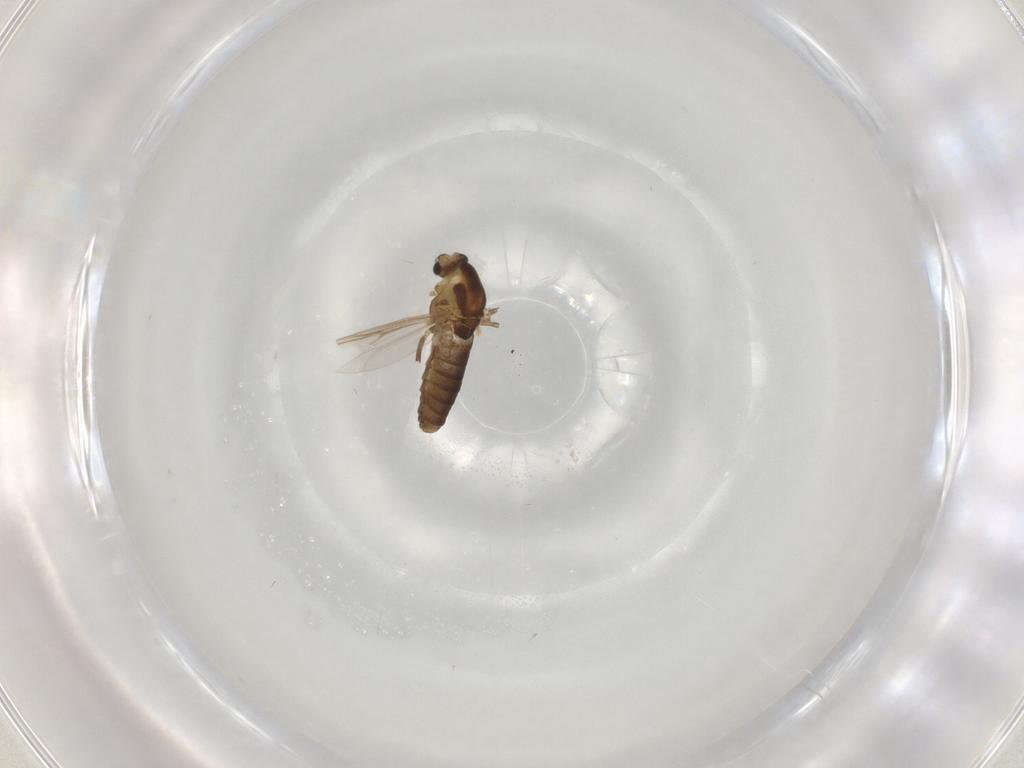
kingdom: Animalia
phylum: Arthropoda
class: Insecta
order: Diptera
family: Chironomidae
